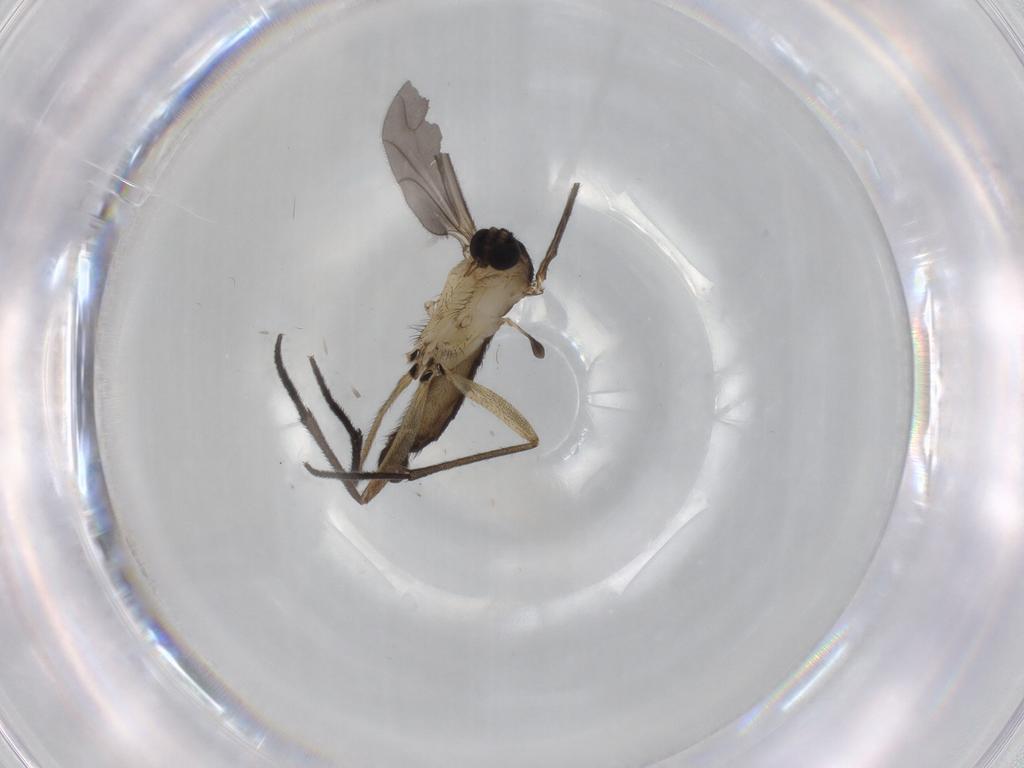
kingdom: Animalia
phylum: Arthropoda
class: Insecta
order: Diptera
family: Sciaridae
